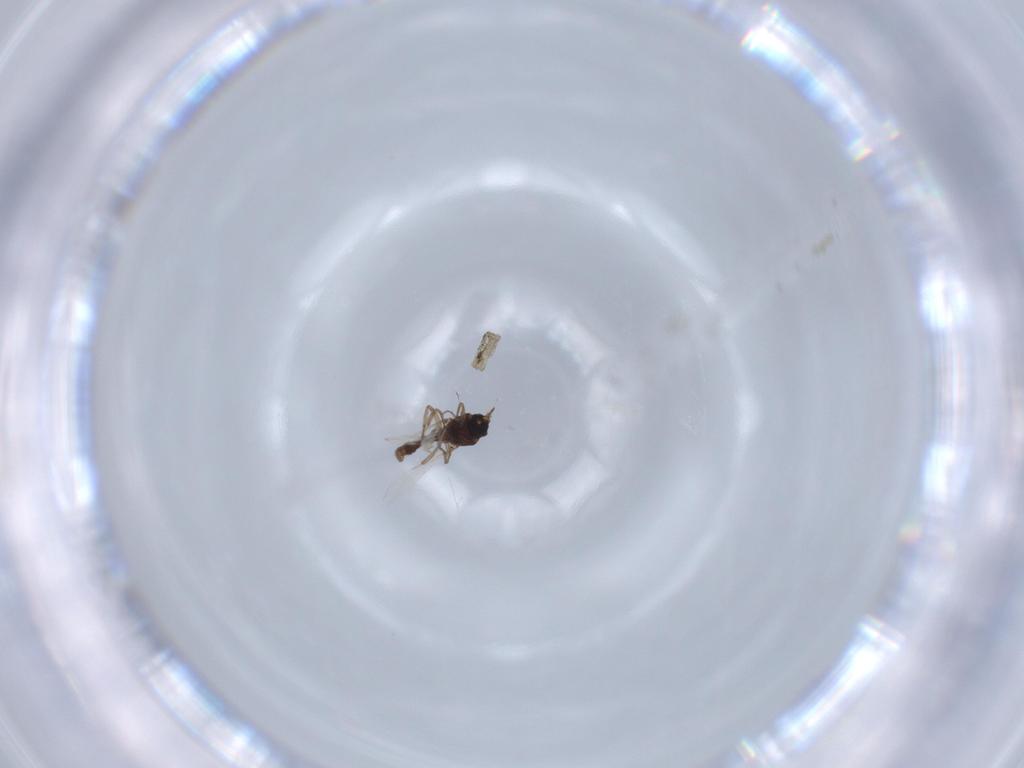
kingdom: Animalia
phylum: Arthropoda
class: Insecta
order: Diptera
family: Ceratopogonidae
